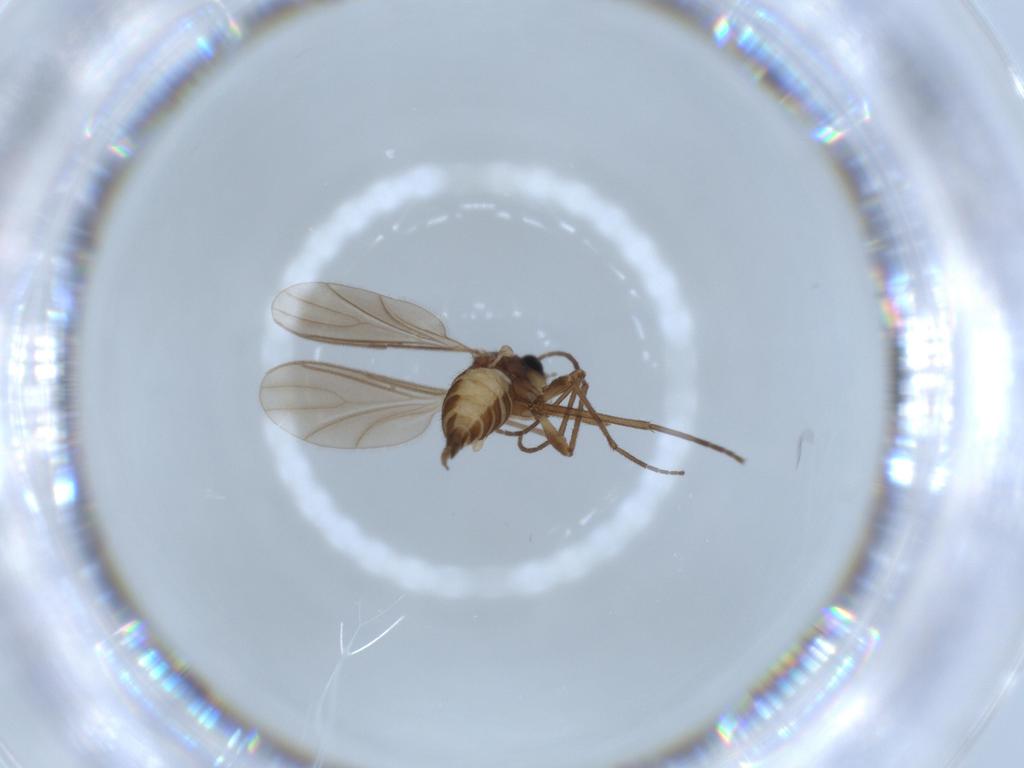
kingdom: Animalia
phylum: Arthropoda
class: Insecta
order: Diptera
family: Sciaridae
